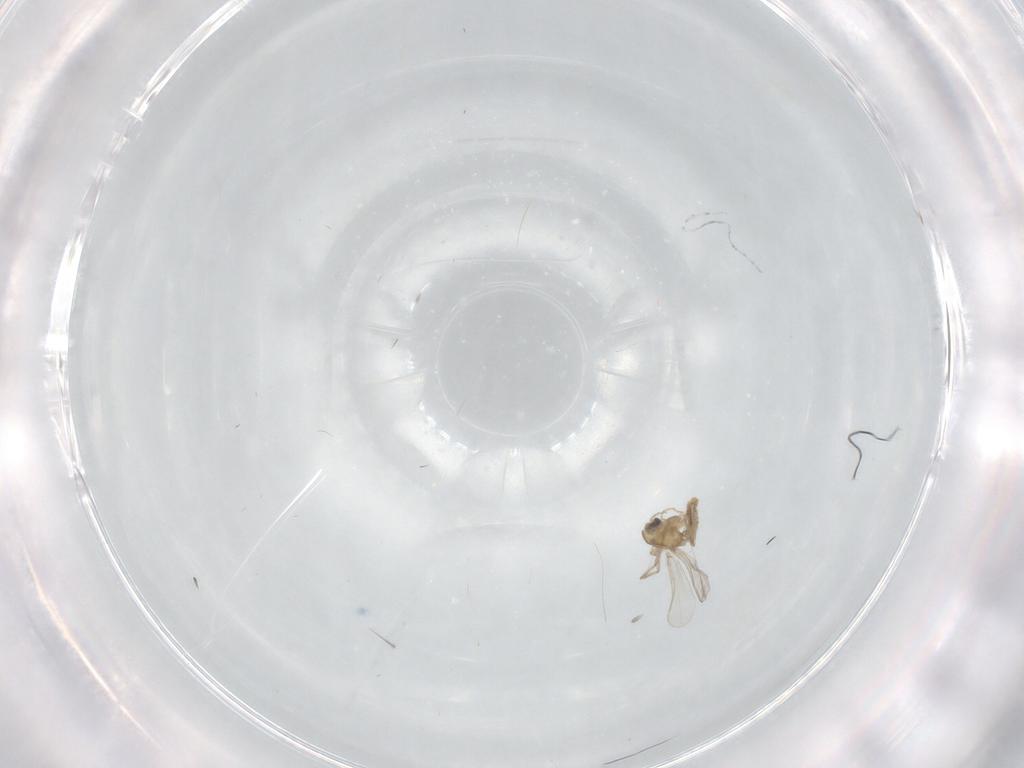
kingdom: Animalia
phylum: Arthropoda
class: Insecta
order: Diptera
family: Chironomidae
